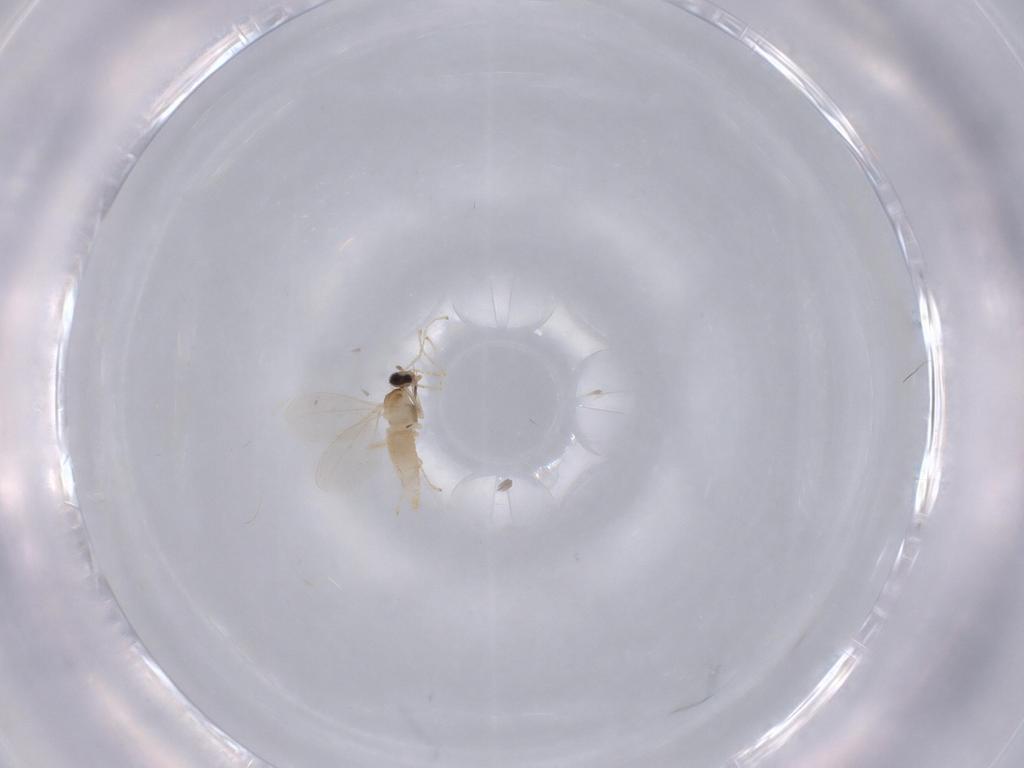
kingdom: Animalia
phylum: Arthropoda
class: Insecta
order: Diptera
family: Cecidomyiidae
